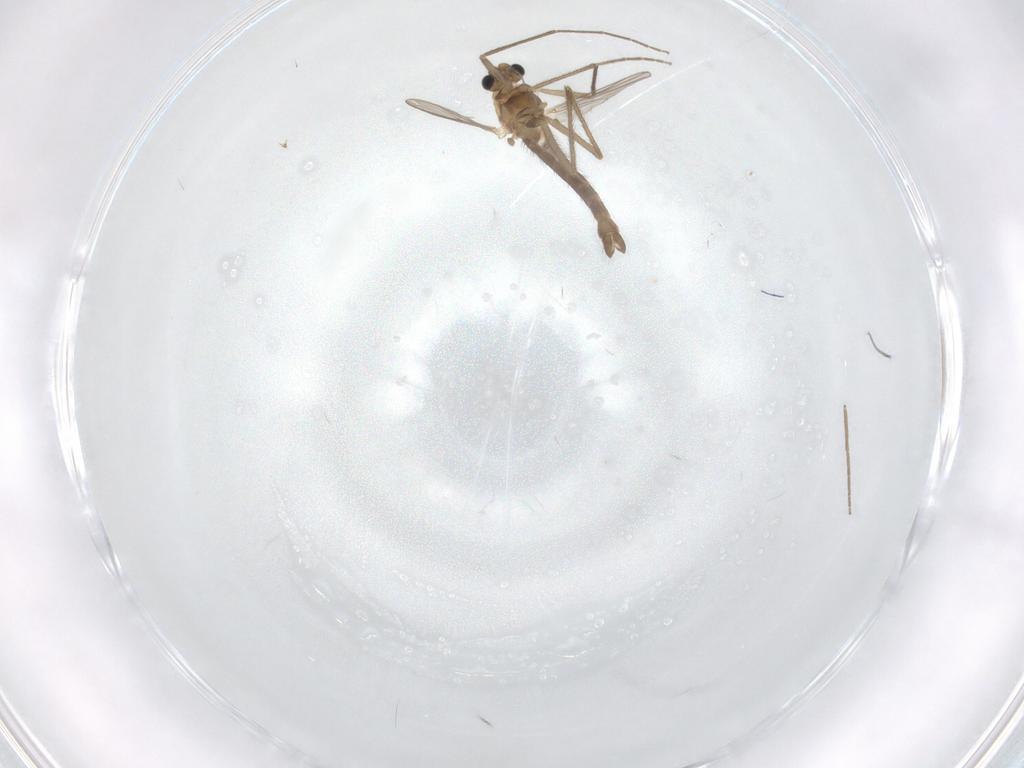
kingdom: Animalia
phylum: Arthropoda
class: Insecta
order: Diptera
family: Chironomidae
